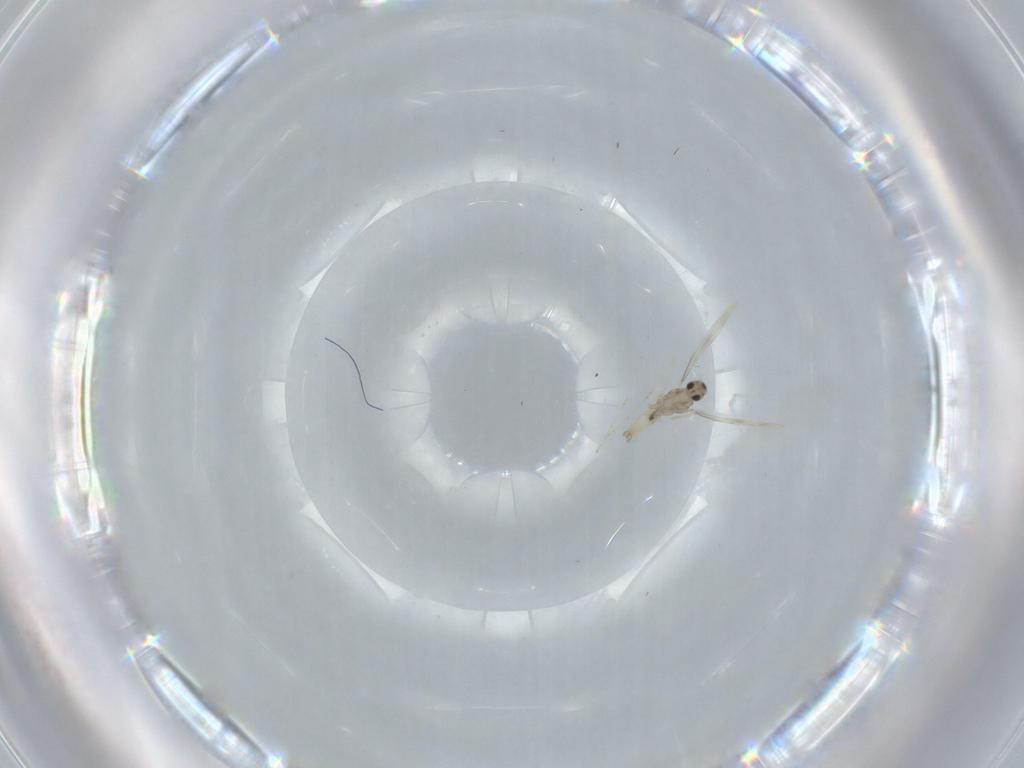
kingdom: Animalia
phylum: Arthropoda
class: Insecta
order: Diptera
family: Cecidomyiidae
